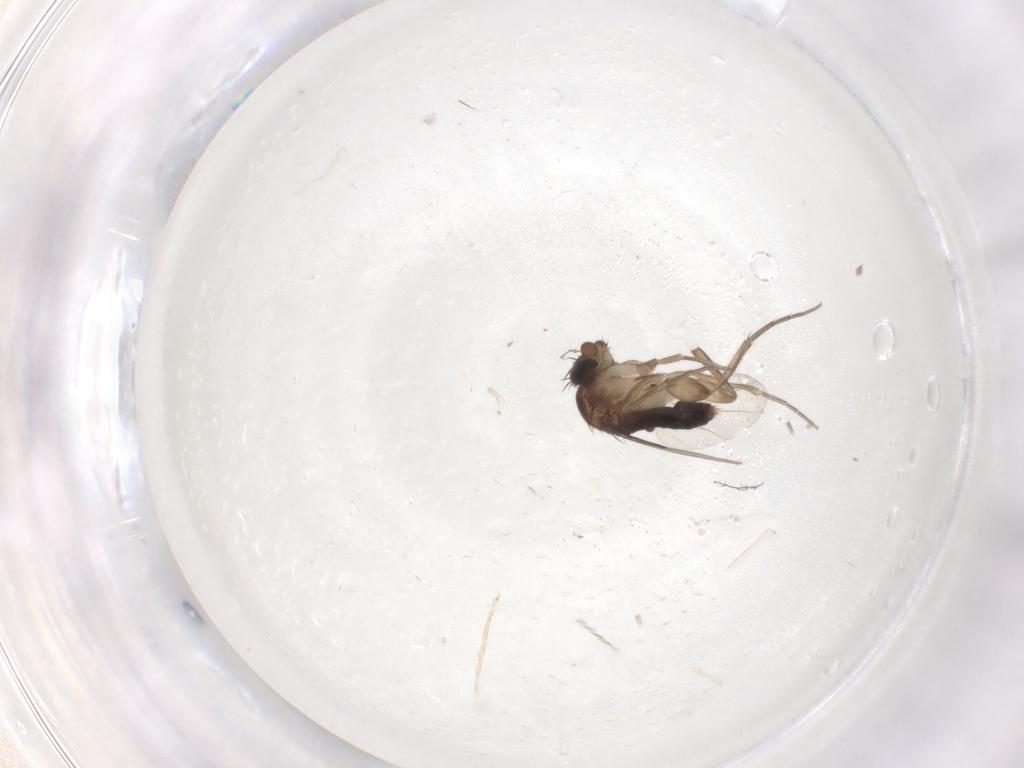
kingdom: Animalia
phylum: Arthropoda
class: Insecta
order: Diptera
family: Phoridae
